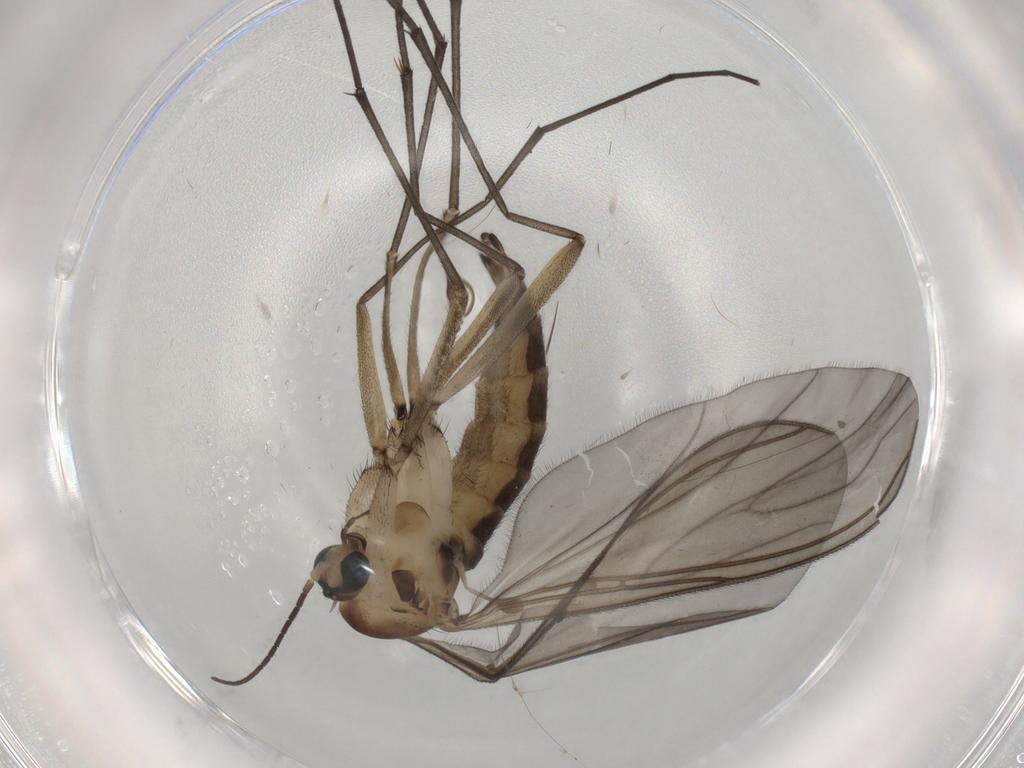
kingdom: Animalia
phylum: Arthropoda
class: Insecta
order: Diptera
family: Sciaridae
